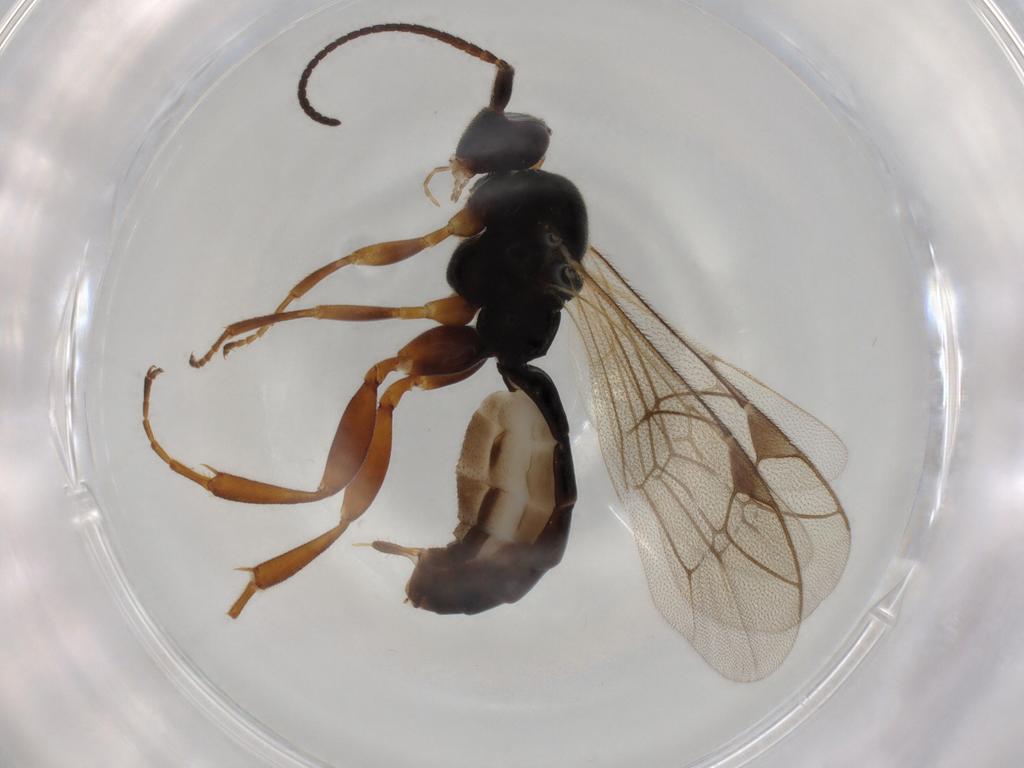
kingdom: Animalia
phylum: Arthropoda
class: Insecta
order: Hymenoptera
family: Ichneumonidae
